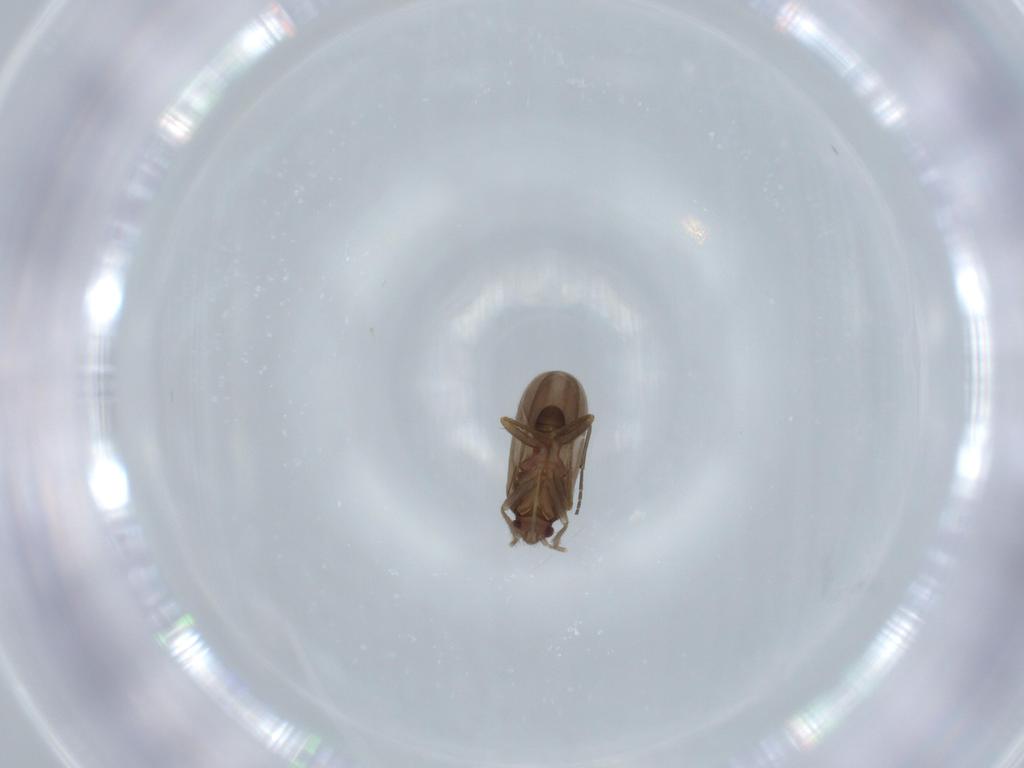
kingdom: Animalia
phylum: Arthropoda
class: Insecta
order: Hemiptera
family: Ceratocombidae
